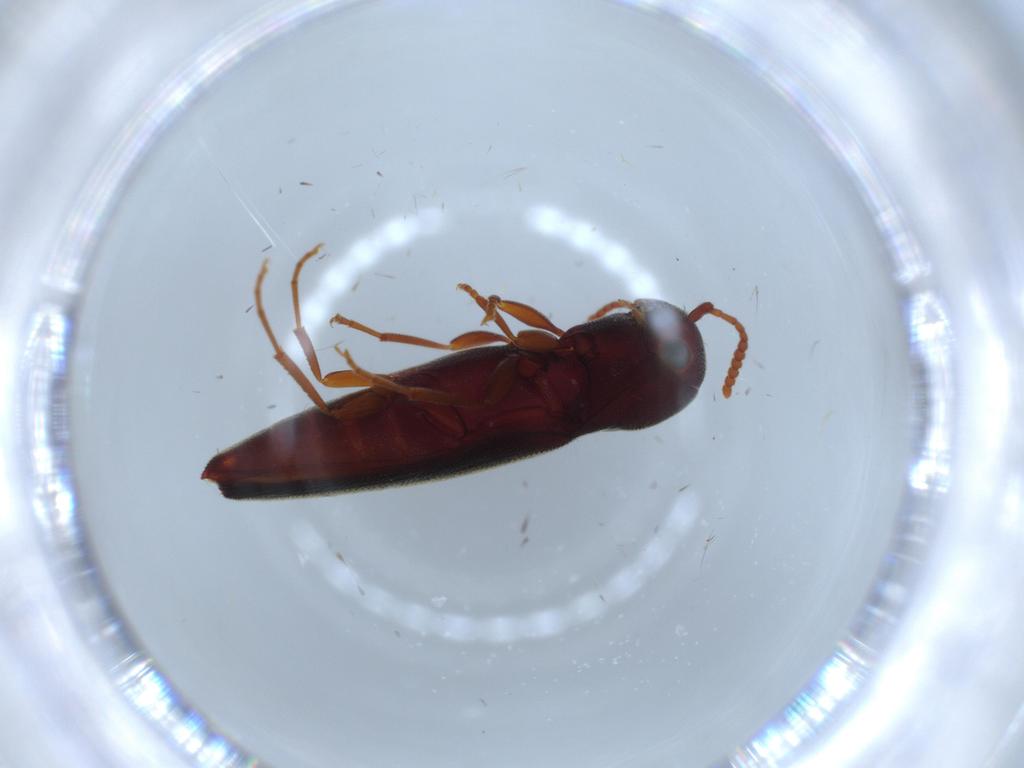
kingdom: Animalia
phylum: Arthropoda
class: Insecta
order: Coleoptera
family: Eucnemidae
